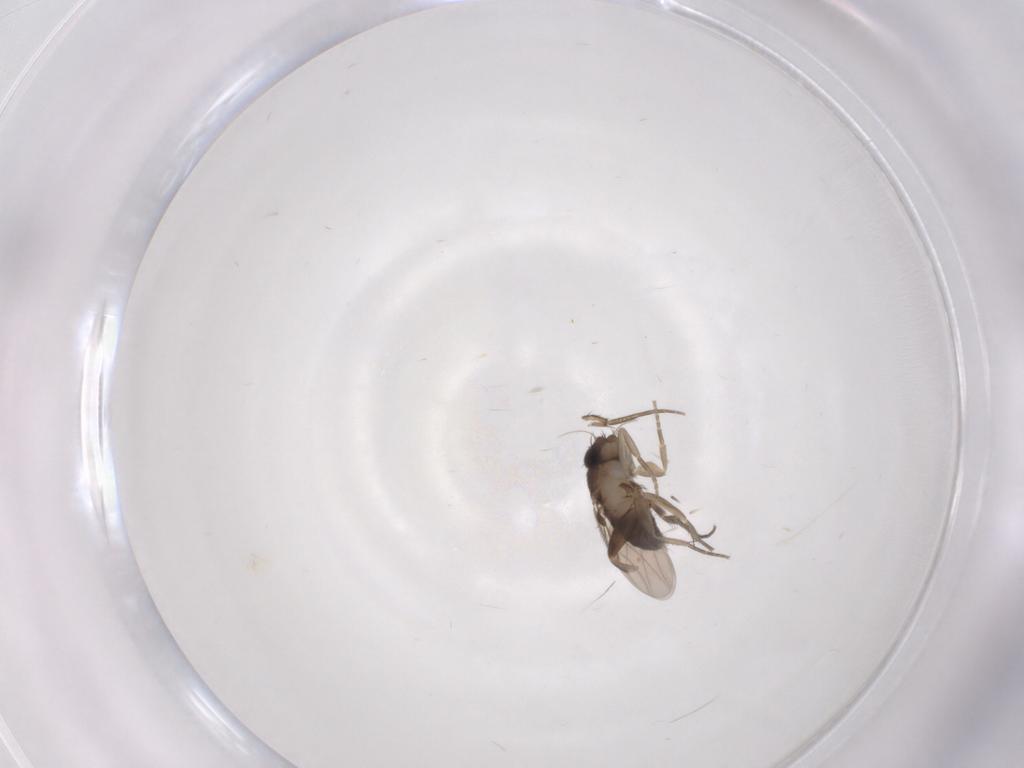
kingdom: Animalia
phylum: Arthropoda
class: Insecta
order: Diptera
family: Phoridae
